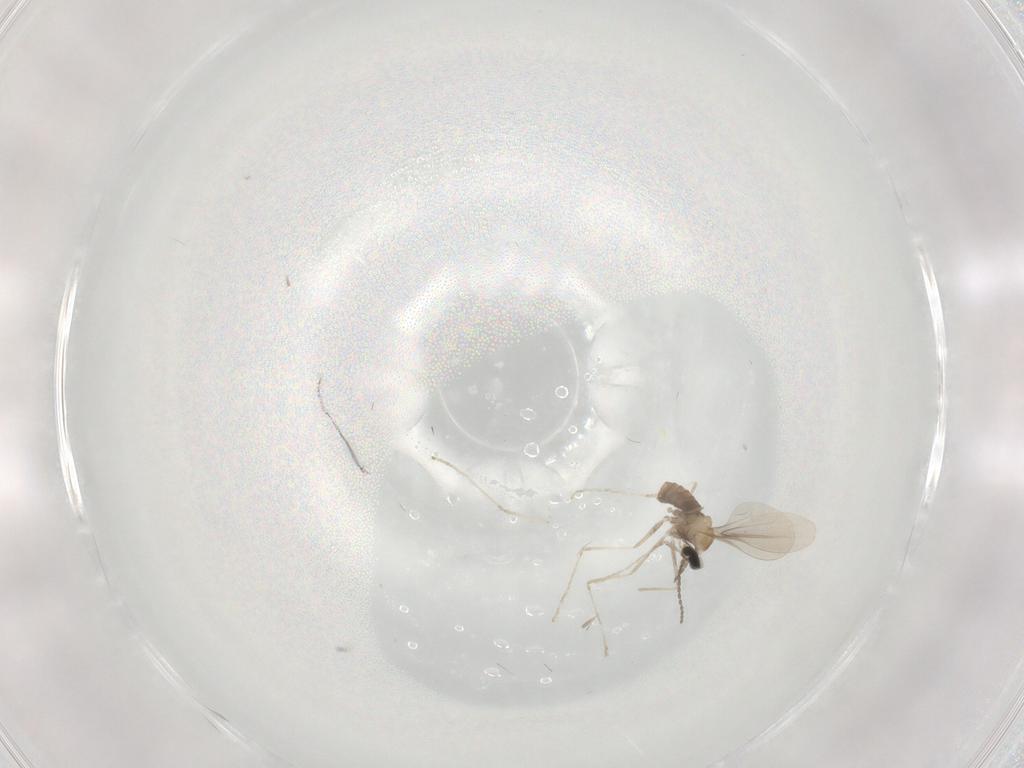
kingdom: Animalia
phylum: Arthropoda
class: Insecta
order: Diptera
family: Cecidomyiidae
